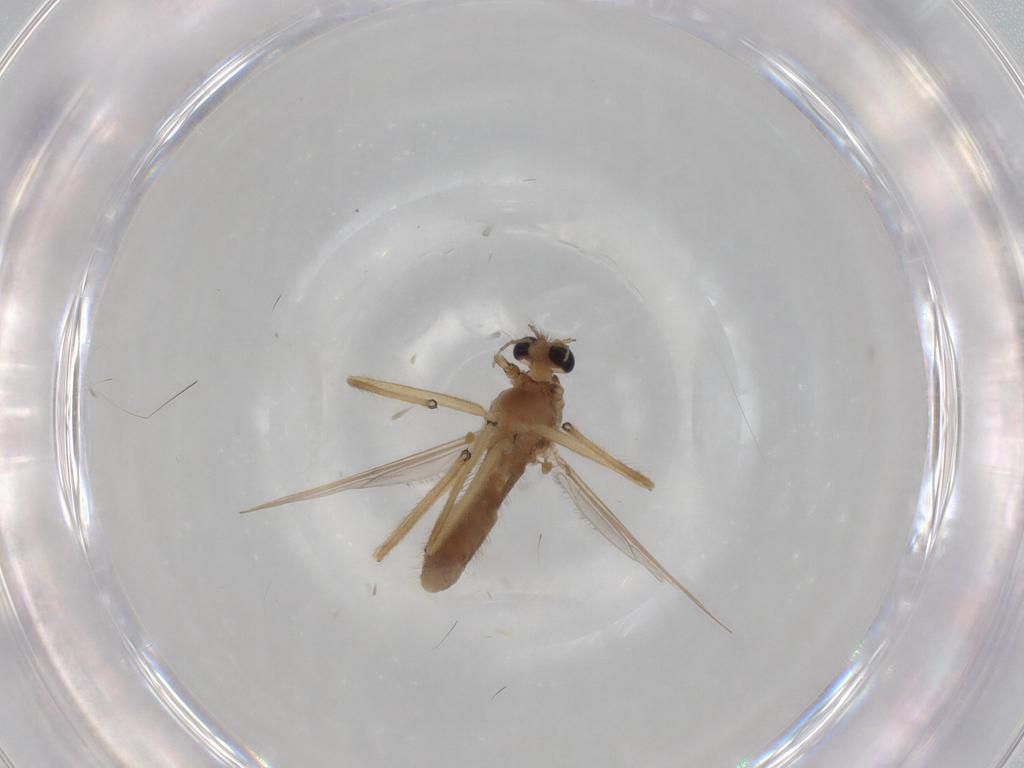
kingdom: Animalia
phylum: Arthropoda
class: Insecta
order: Diptera
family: Chironomidae
